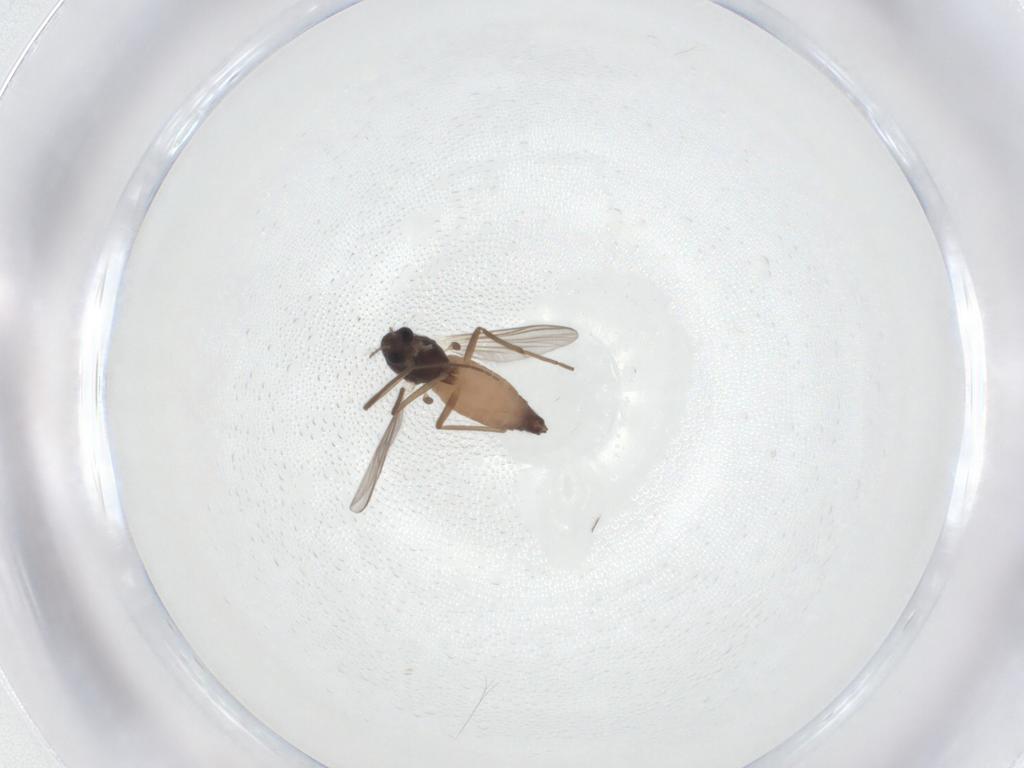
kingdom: Animalia
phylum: Arthropoda
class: Insecta
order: Diptera
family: Chironomidae
